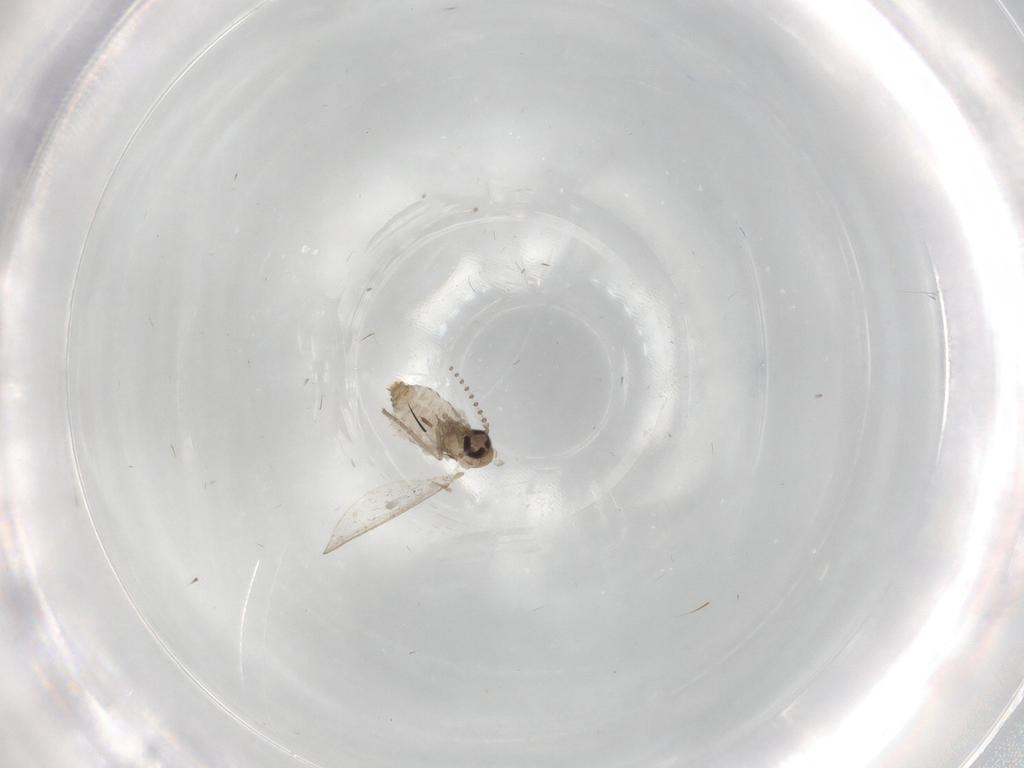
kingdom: Animalia
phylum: Arthropoda
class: Insecta
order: Diptera
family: Psychodidae
